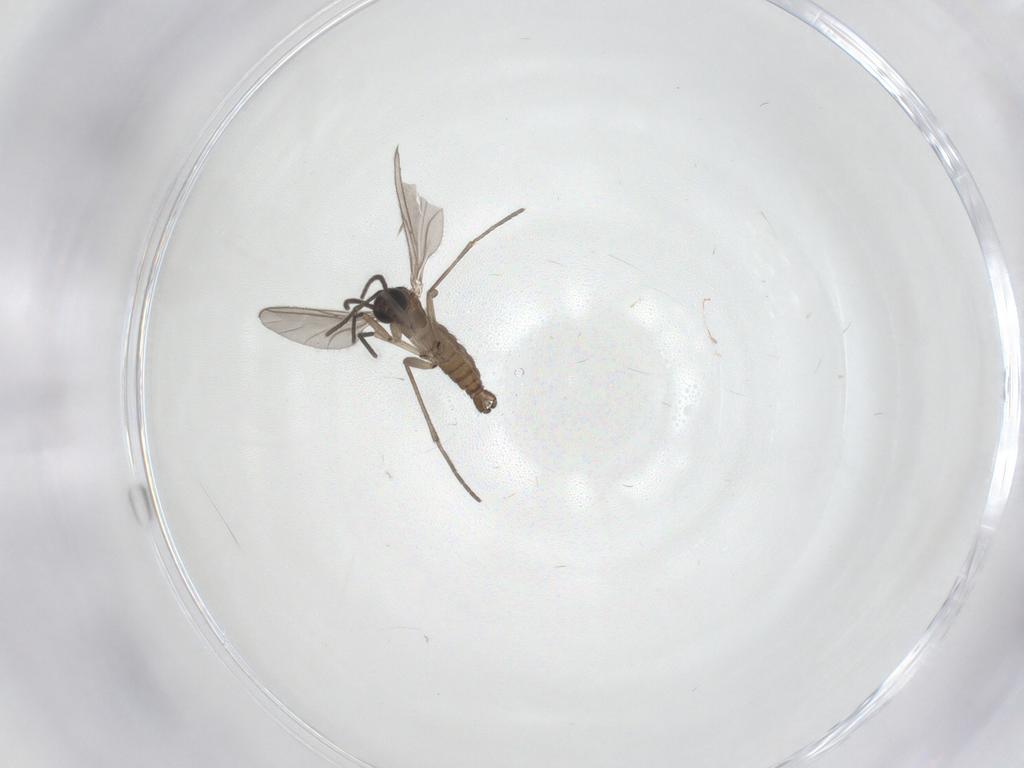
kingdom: Animalia
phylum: Arthropoda
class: Insecta
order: Diptera
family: Sciaridae
